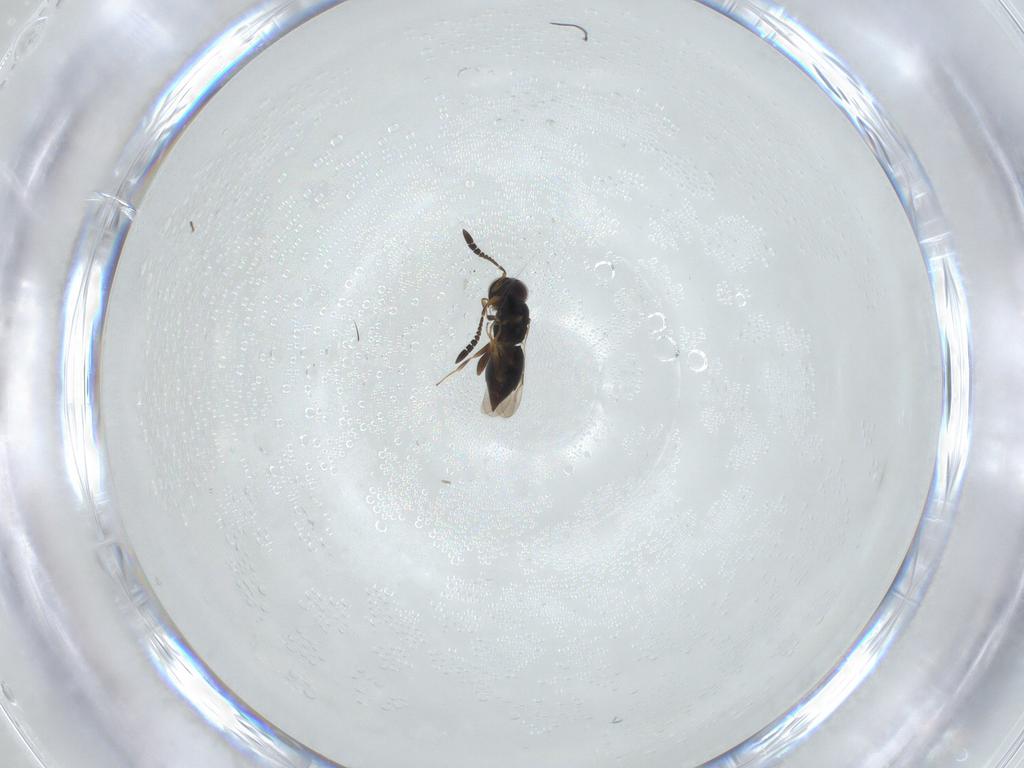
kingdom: Animalia
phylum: Arthropoda
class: Insecta
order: Hymenoptera
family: Ceraphronidae
